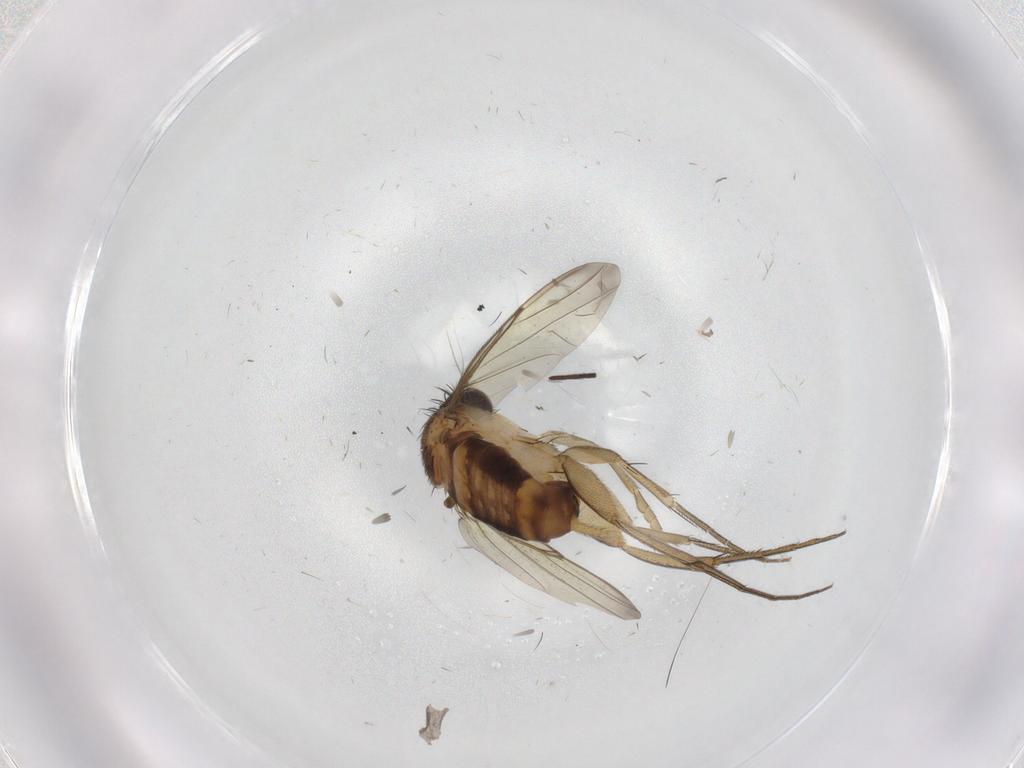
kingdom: Animalia
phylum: Arthropoda
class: Insecta
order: Diptera
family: Phoridae
